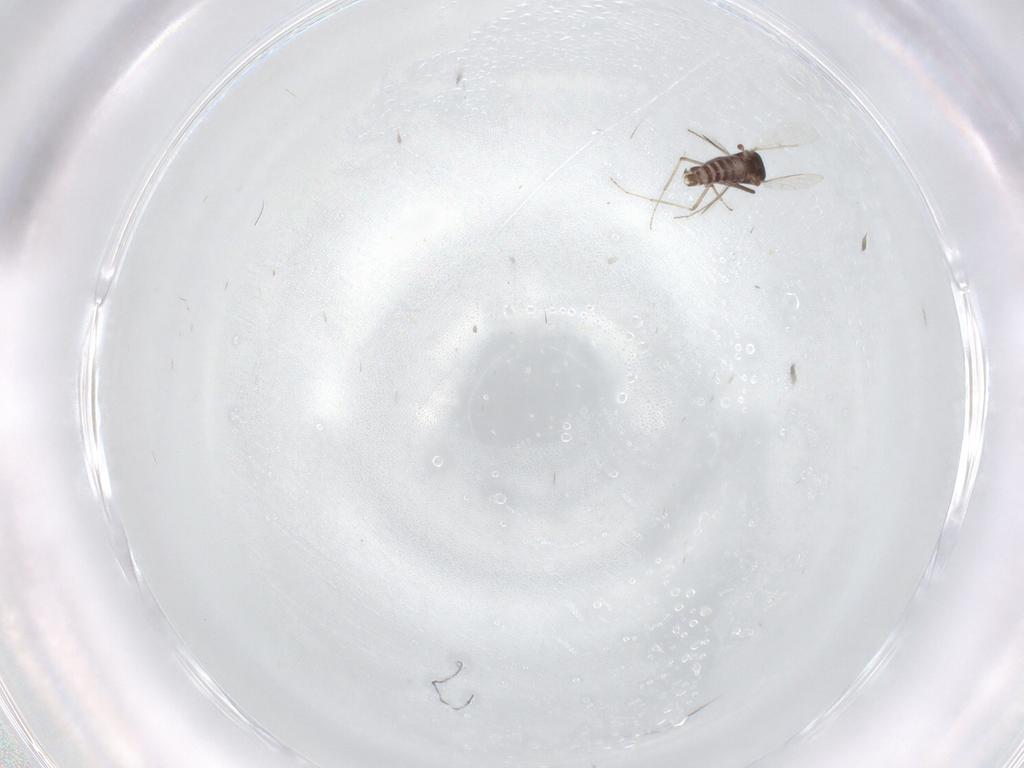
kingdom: Animalia
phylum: Arthropoda
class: Insecta
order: Diptera
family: Ceratopogonidae
